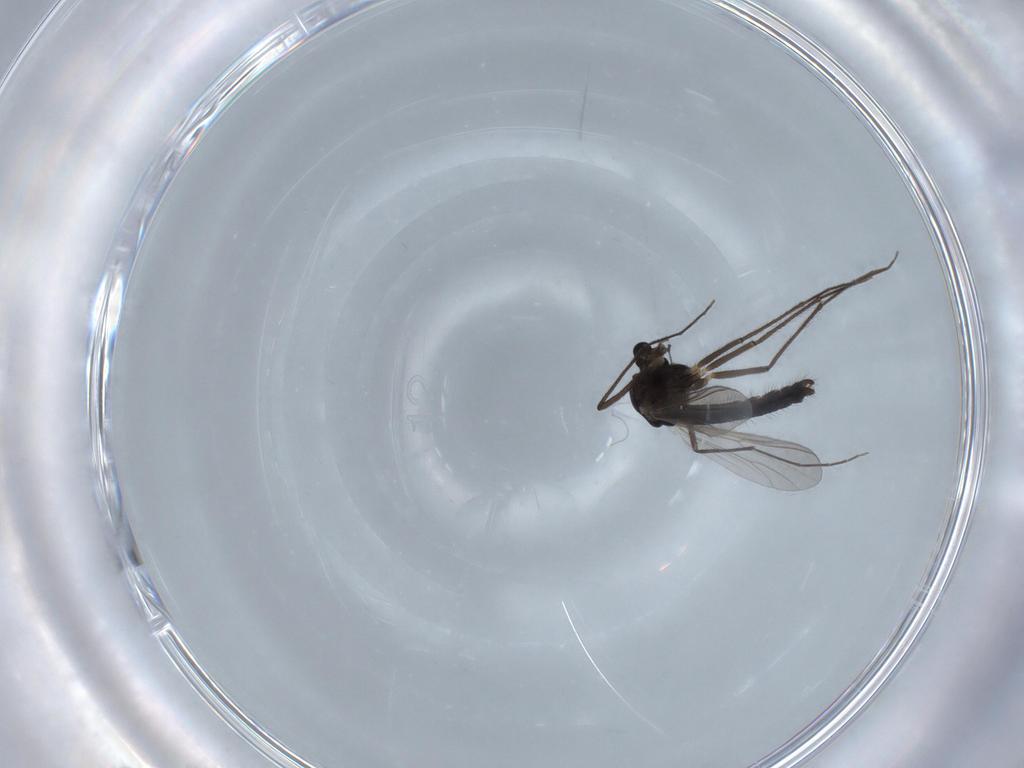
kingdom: Animalia
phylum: Arthropoda
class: Insecta
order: Diptera
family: Chironomidae
